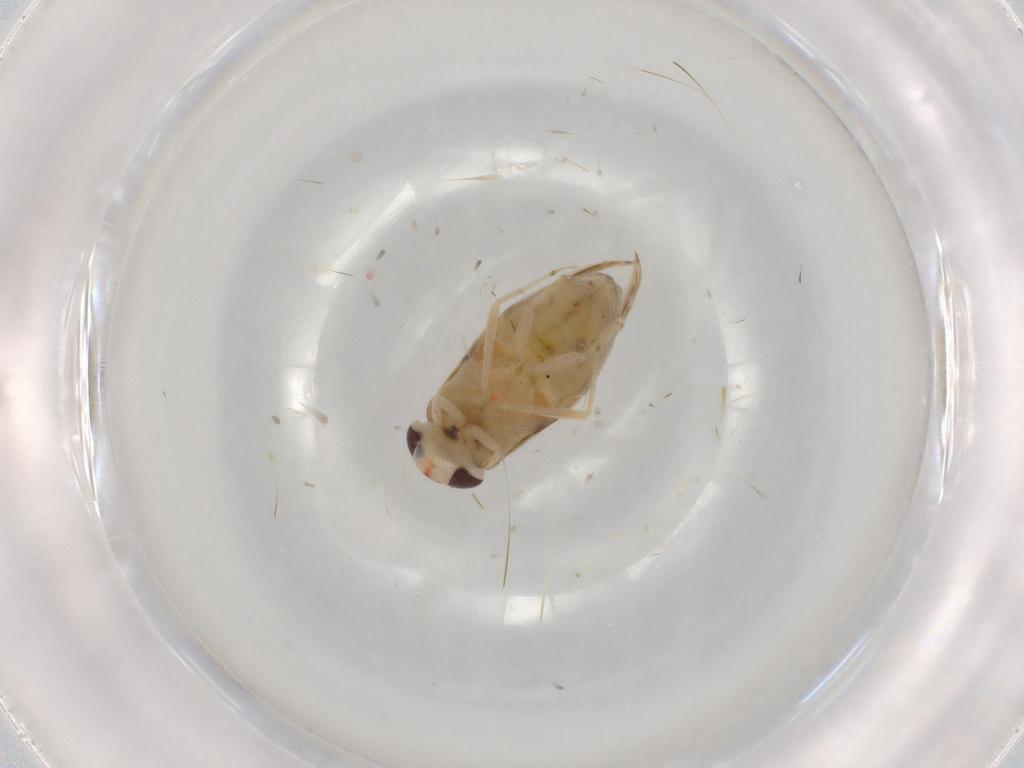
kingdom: Animalia
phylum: Arthropoda
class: Insecta
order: Hemiptera
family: Corixidae
